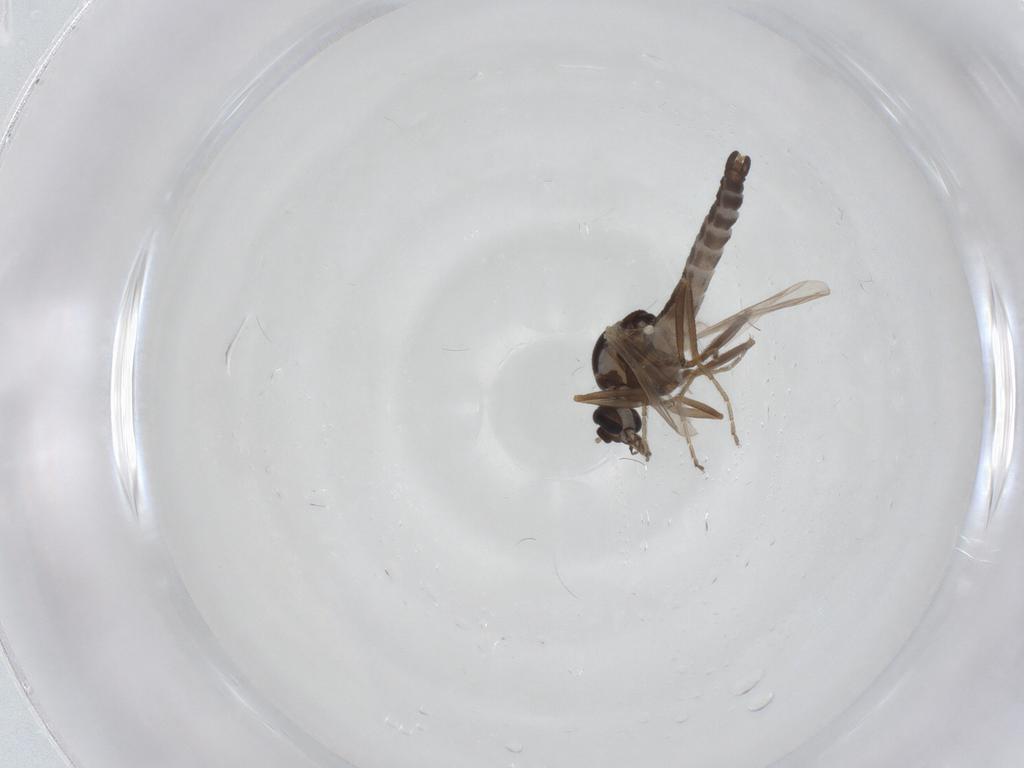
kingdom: Animalia
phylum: Arthropoda
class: Insecta
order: Diptera
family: Ceratopogonidae
